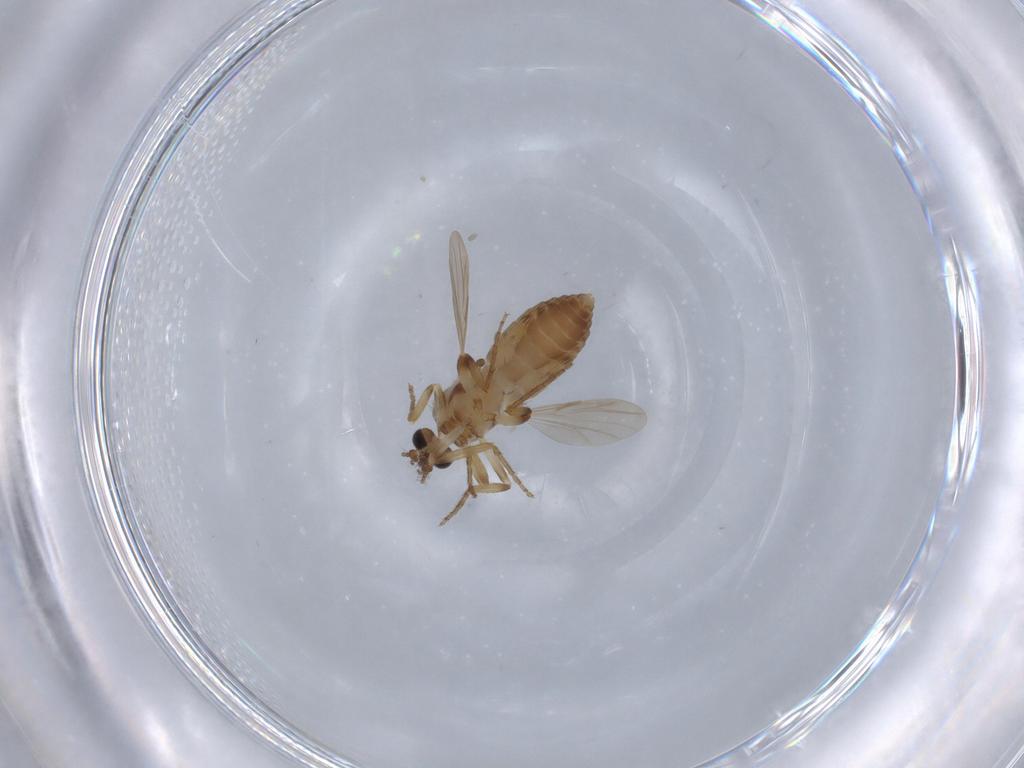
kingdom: Animalia
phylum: Arthropoda
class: Insecta
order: Diptera
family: Ceratopogonidae
